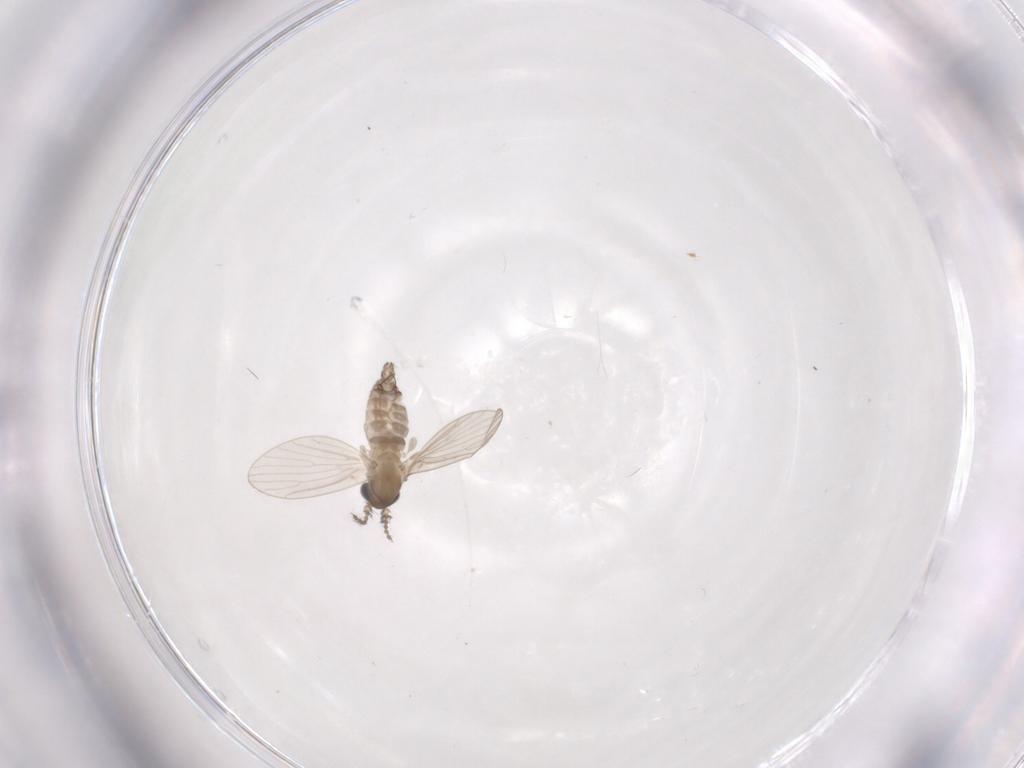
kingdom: Animalia
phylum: Arthropoda
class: Insecta
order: Diptera
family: Psychodidae
